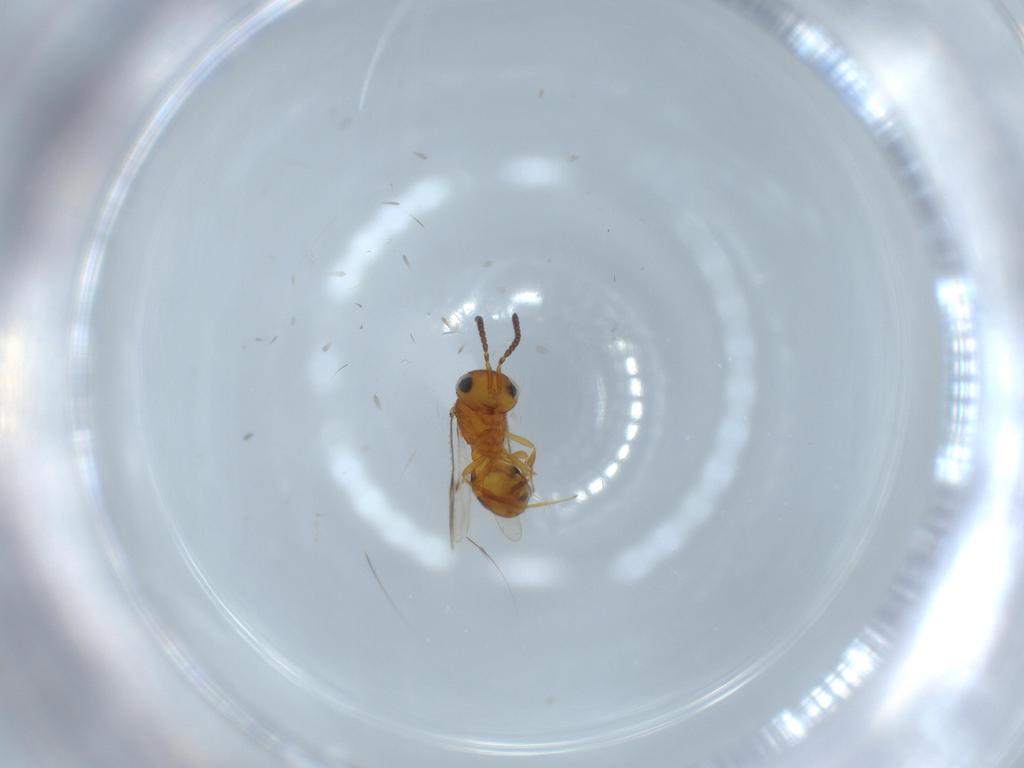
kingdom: Animalia
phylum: Arthropoda
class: Insecta
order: Hymenoptera
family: Scelionidae
